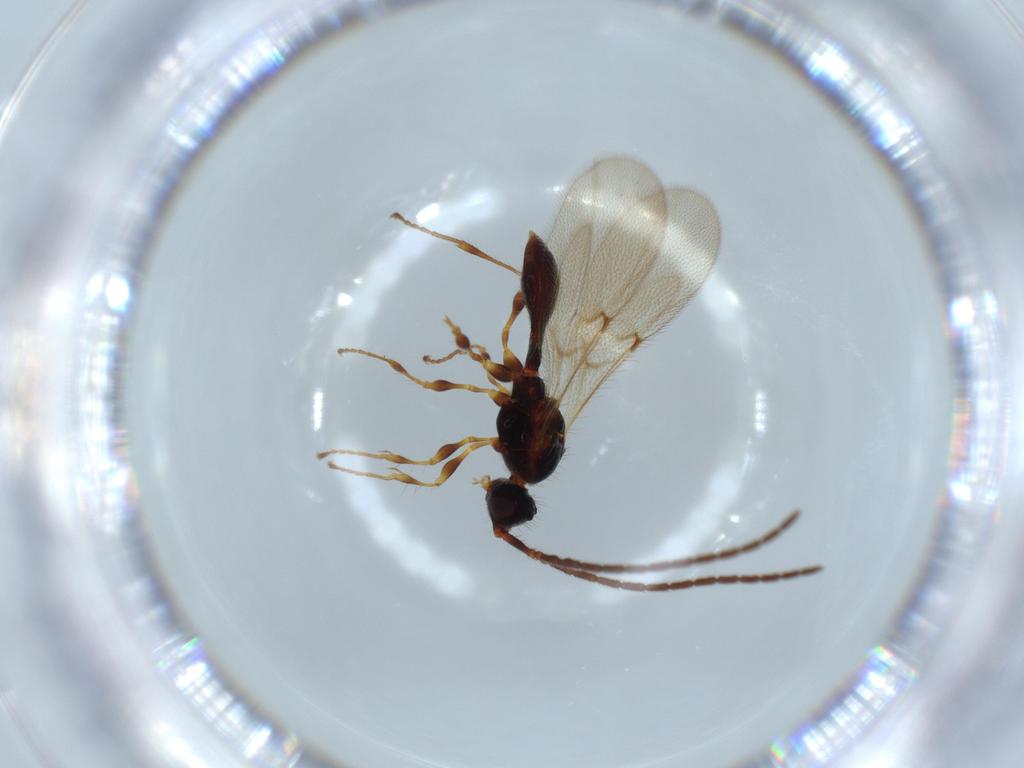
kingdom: Animalia
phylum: Arthropoda
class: Insecta
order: Hymenoptera
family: Diapriidae
